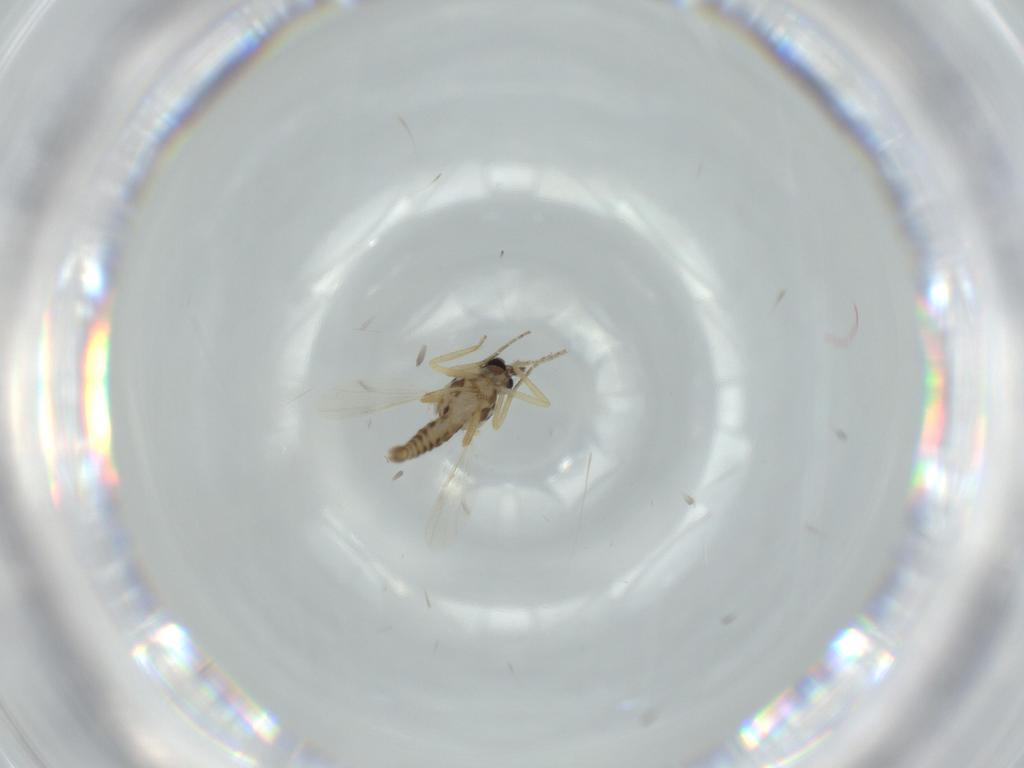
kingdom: Animalia
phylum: Arthropoda
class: Insecta
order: Diptera
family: Ceratopogonidae
